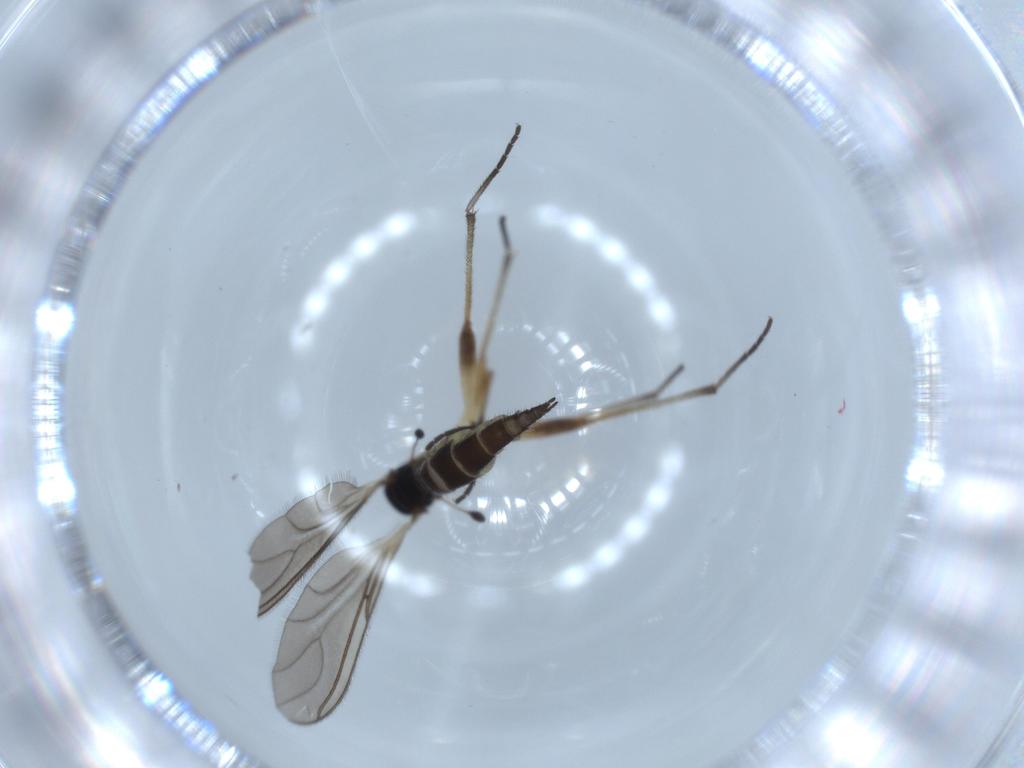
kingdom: Animalia
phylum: Arthropoda
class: Insecta
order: Diptera
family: Sciaridae
